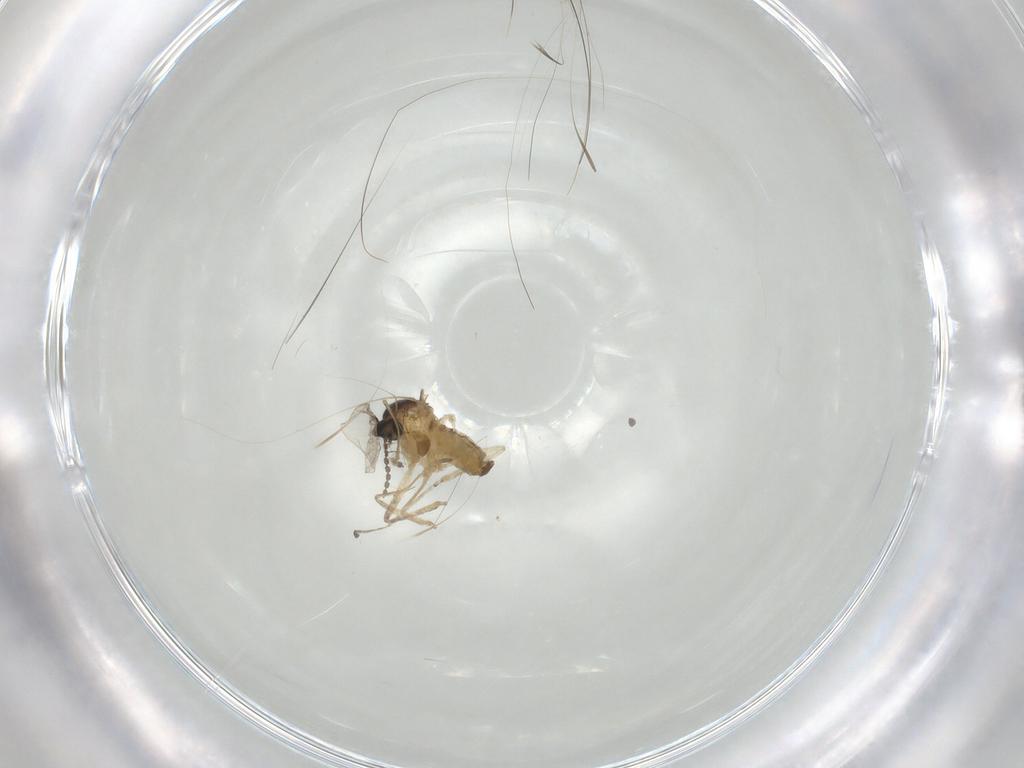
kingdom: Animalia
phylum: Arthropoda
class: Insecta
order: Diptera
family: Chironomidae
